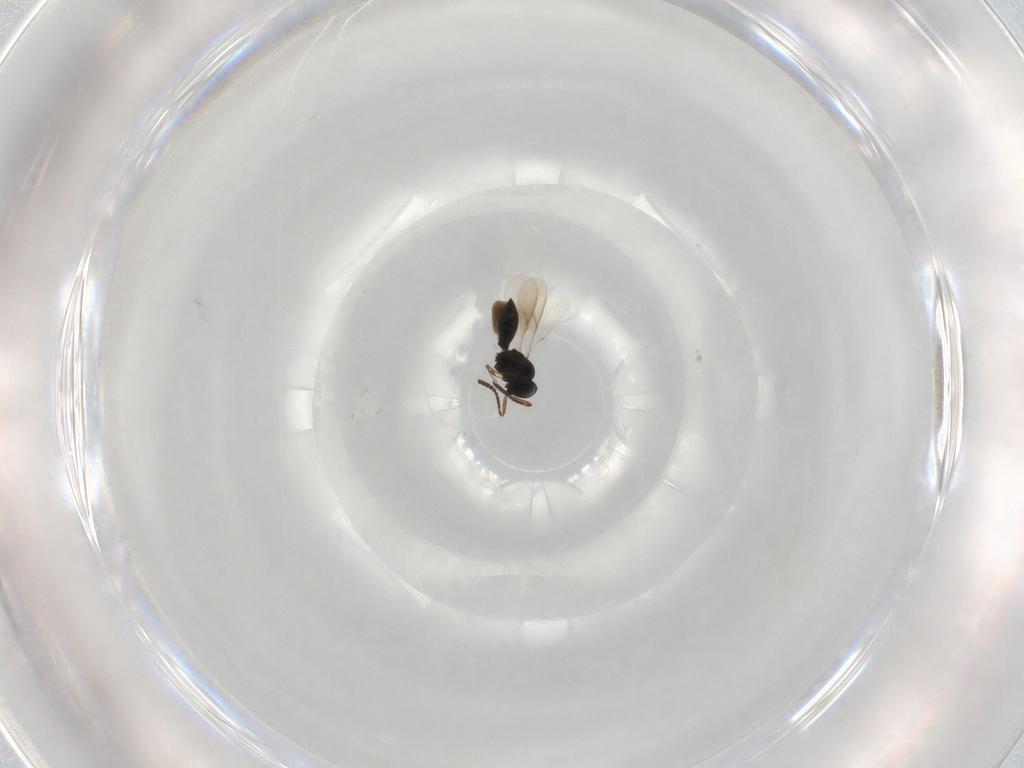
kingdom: Animalia
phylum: Arthropoda
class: Insecta
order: Hymenoptera
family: Scelionidae
